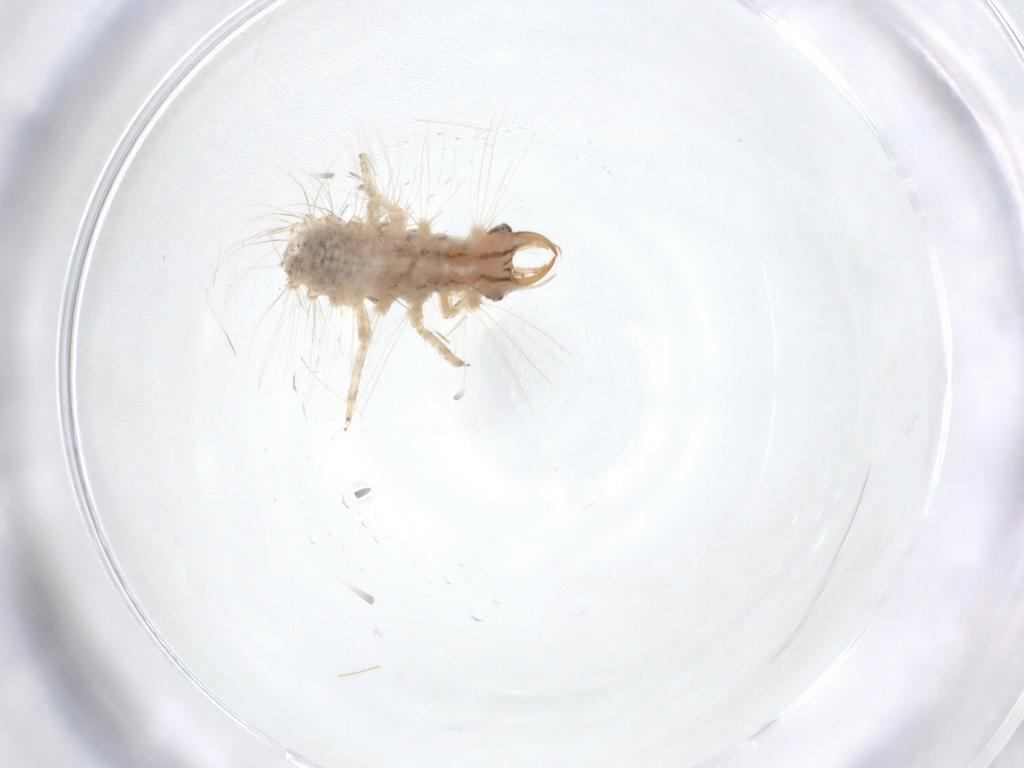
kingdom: Animalia
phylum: Arthropoda
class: Insecta
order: Neuroptera
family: Chrysopidae
